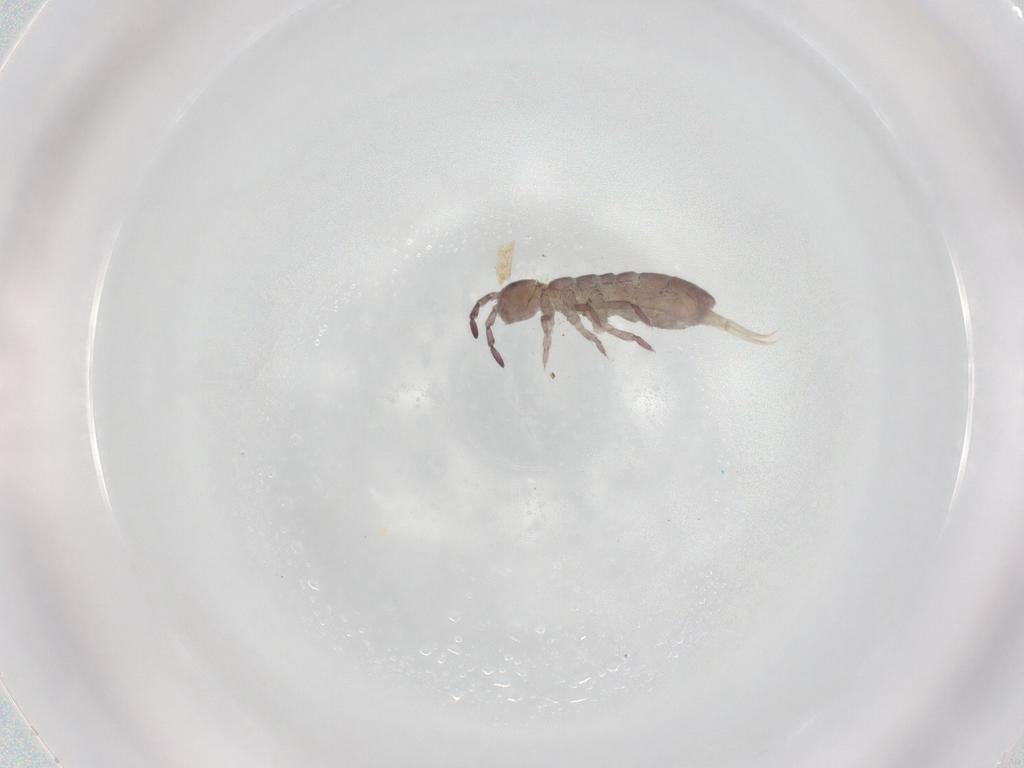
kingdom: Animalia
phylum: Arthropoda
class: Collembola
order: Entomobryomorpha
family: Isotomidae
